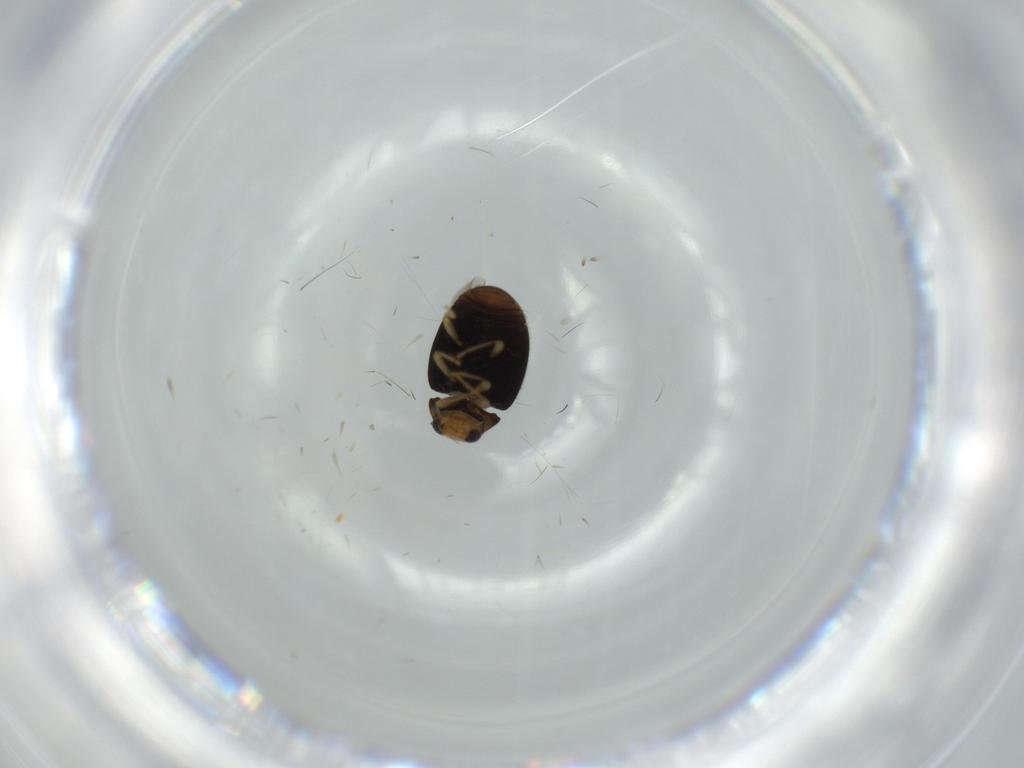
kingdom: Animalia
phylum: Arthropoda
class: Insecta
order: Coleoptera
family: Coccinellidae
